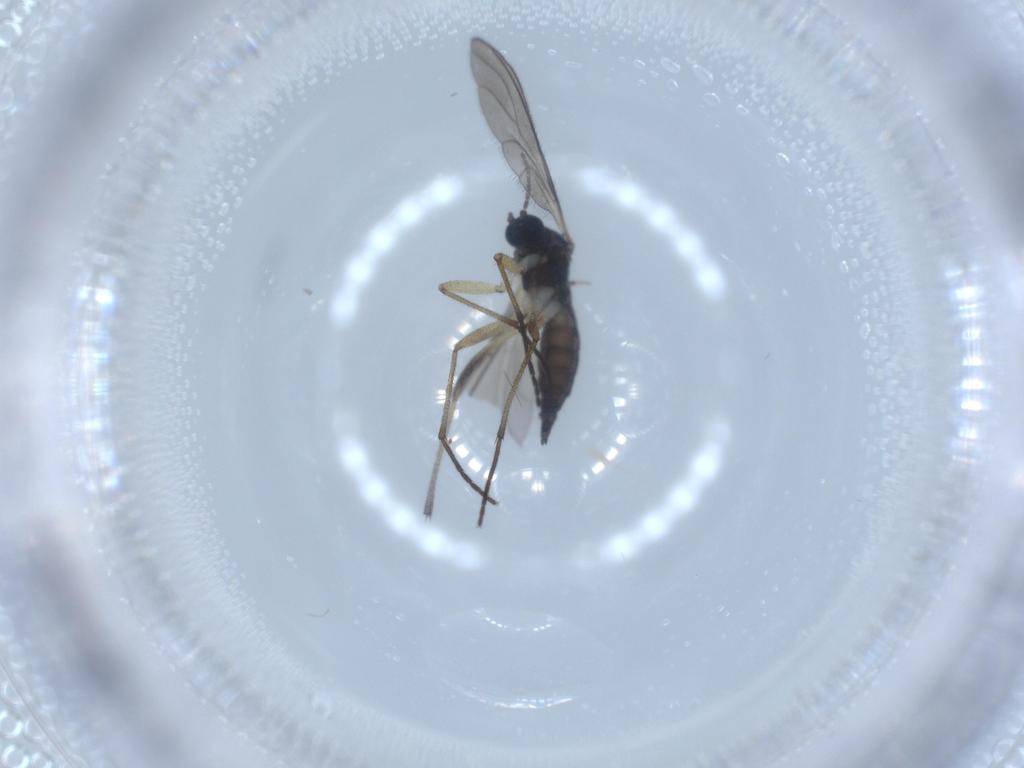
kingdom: Animalia
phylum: Arthropoda
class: Insecta
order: Diptera
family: Sciaridae
